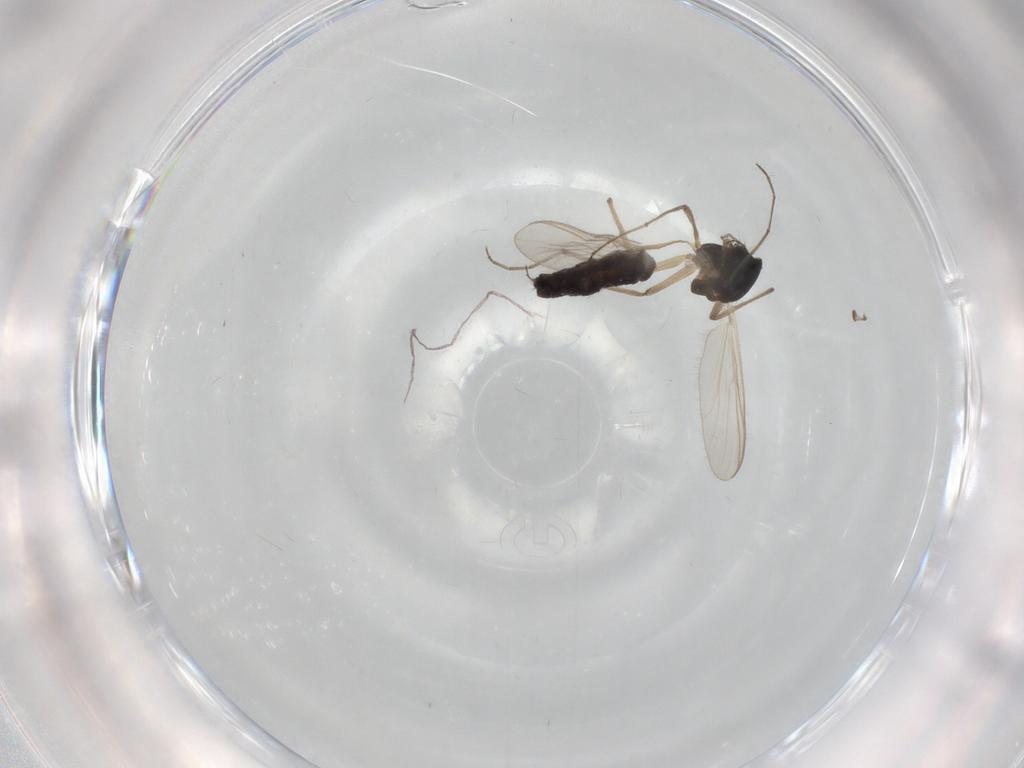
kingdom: Animalia
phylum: Arthropoda
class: Insecta
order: Diptera
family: Chironomidae
